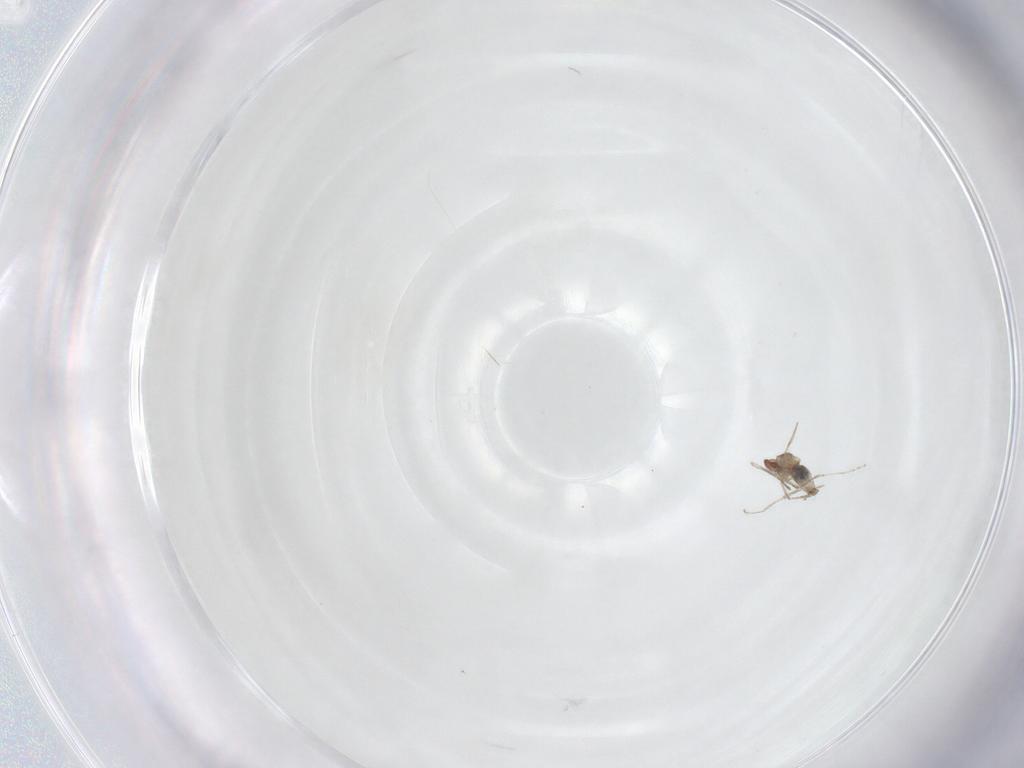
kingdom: Animalia
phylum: Arthropoda
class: Insecta
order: Diptera
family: Cecidomyiidae
